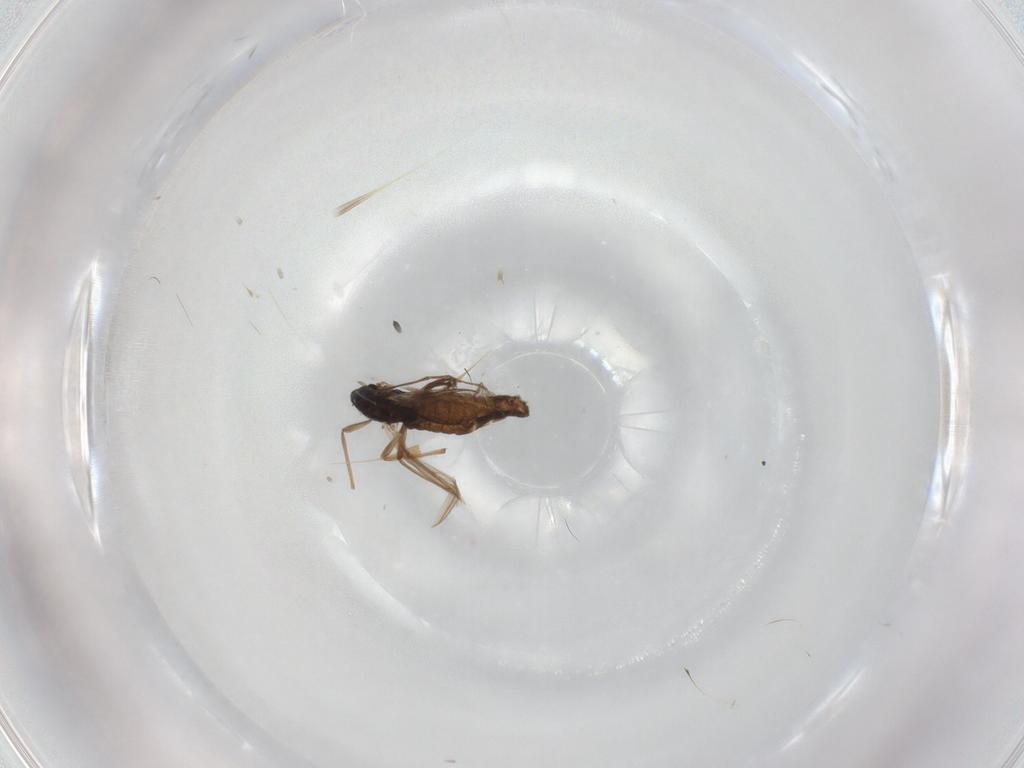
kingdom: Animalia
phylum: Arthropoda
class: Insecta
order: Diptera
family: Chironomidae
